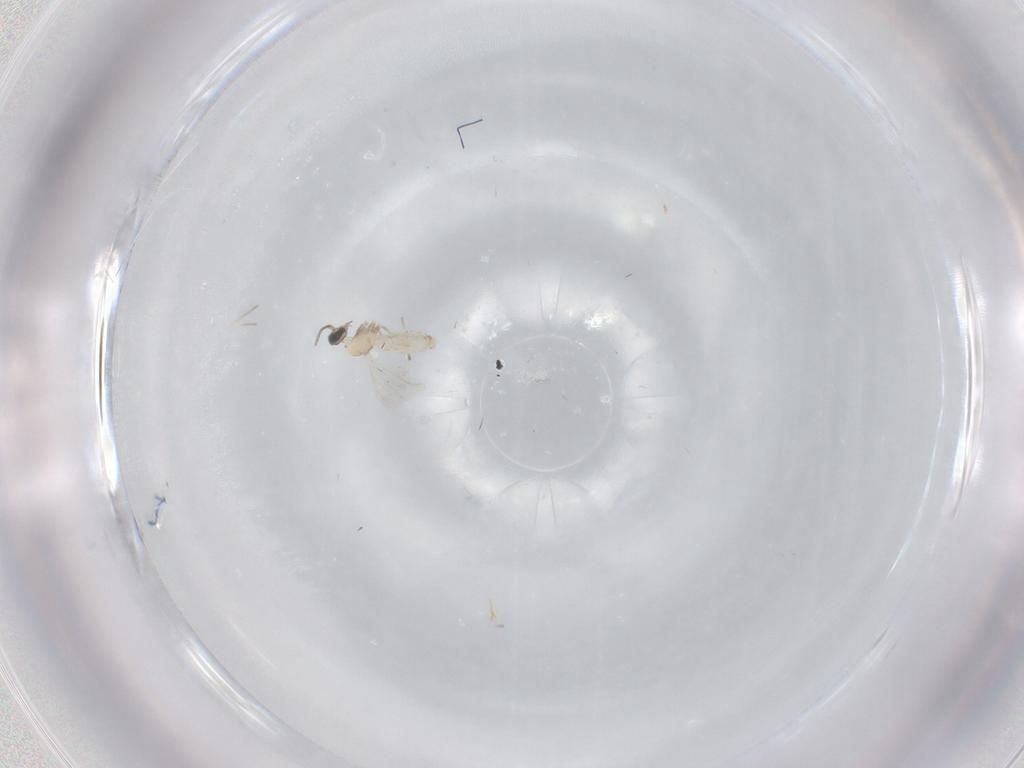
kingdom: Animalia
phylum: Arthropoda
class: Insecta
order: Diptera
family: Cecidomyiidae
